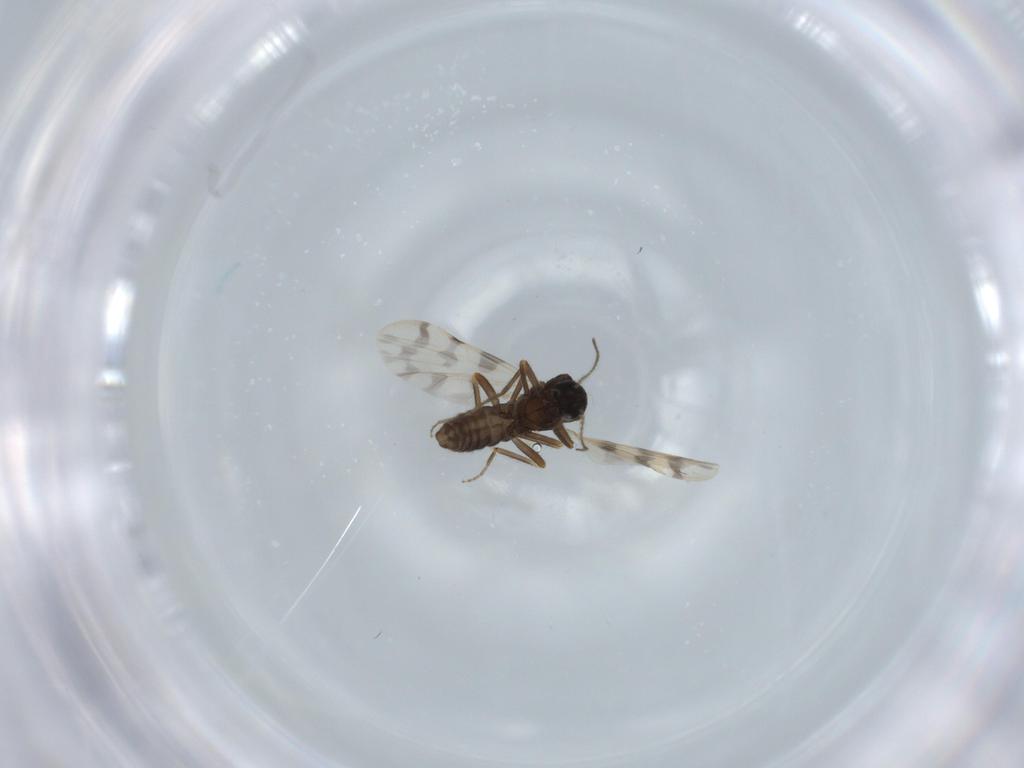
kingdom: Animalia
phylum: Arthropoda
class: Insecta
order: Diptera
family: Ceratopogonidae
